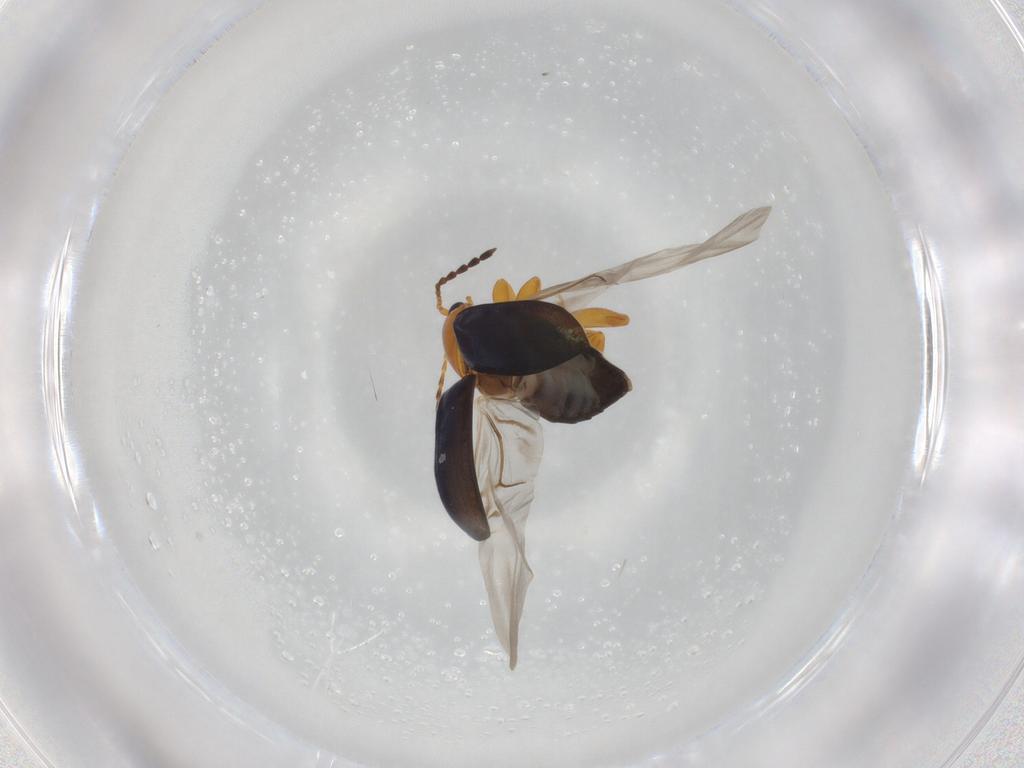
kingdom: Animalia
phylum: Arthropoda
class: Insecta
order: Coleoptera
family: Chrysomelidae
